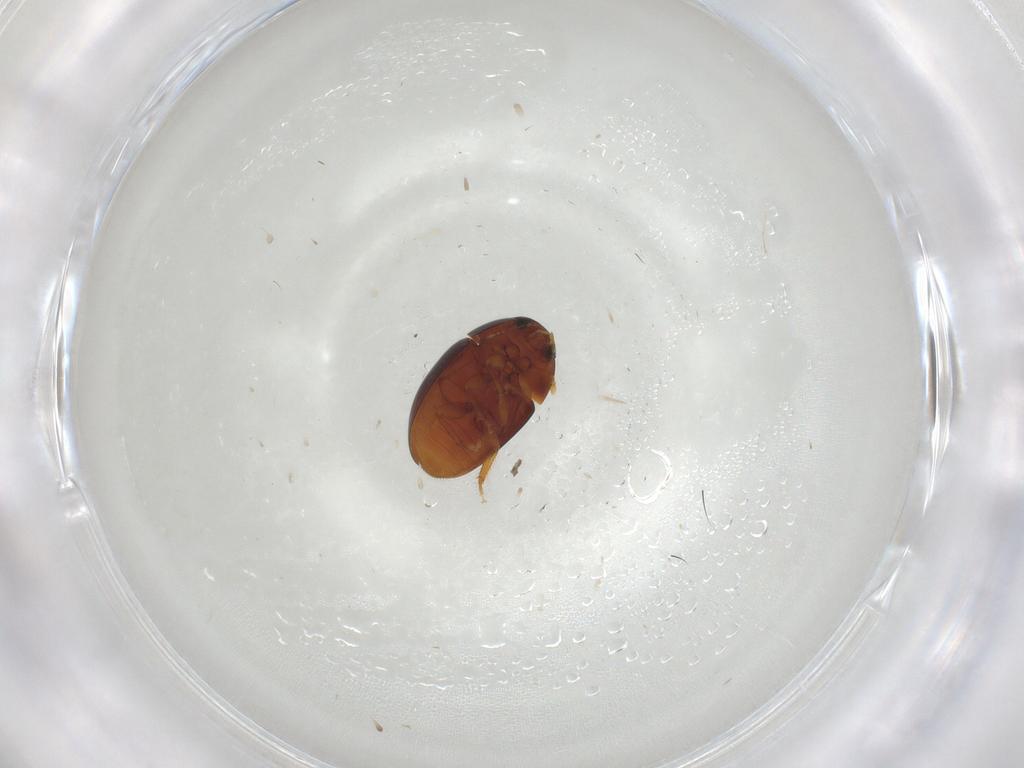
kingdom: Animalia
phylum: Arthropoda
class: Insecta
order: Coleoptera
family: Phalacridae
